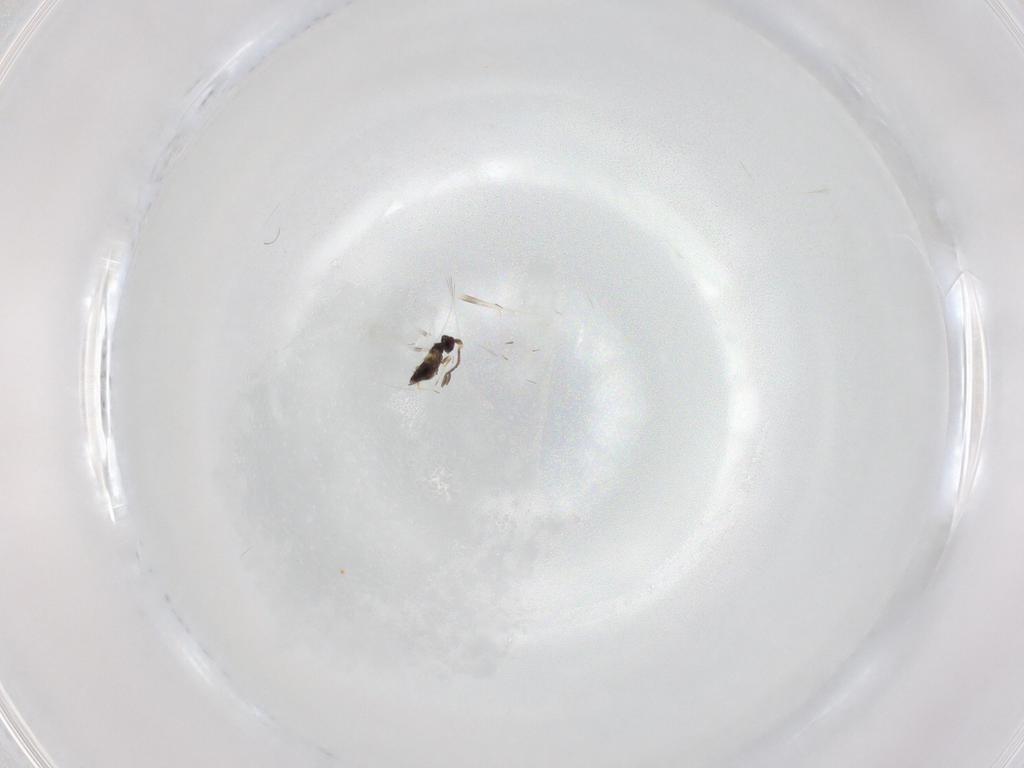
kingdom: Animalia
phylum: Arthropoda
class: Insecta
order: Hymenoptera
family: Mymaridae
